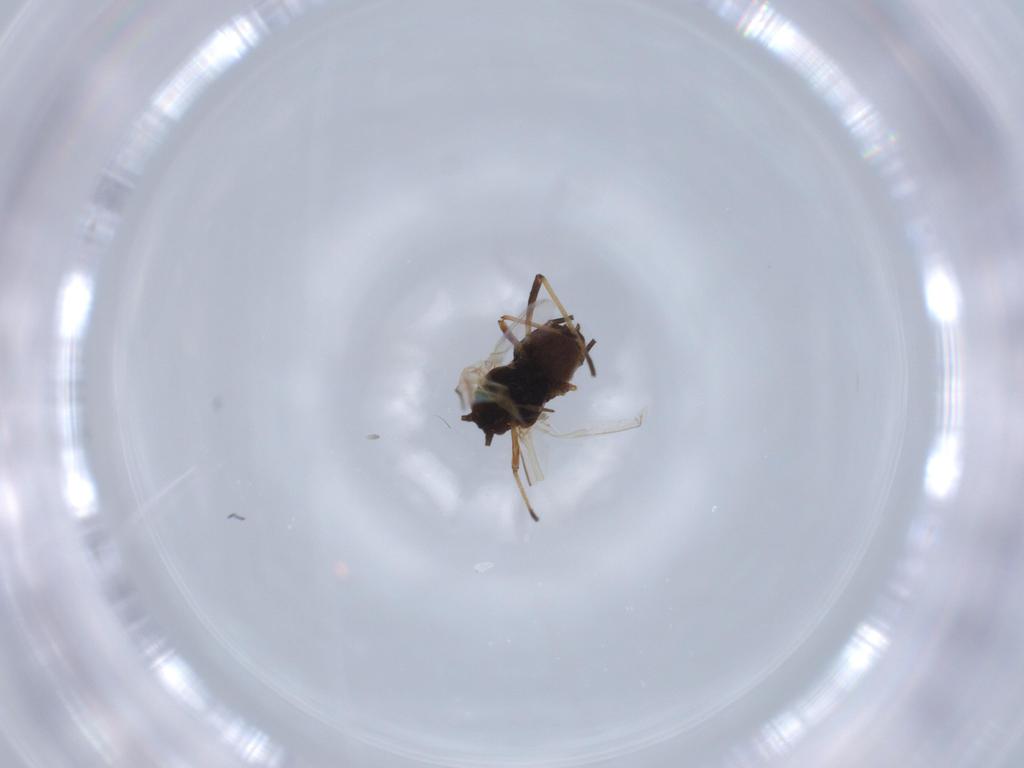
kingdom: Animalia
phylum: Arthropoda
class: Insecta
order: Hemiptera
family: Aphididae
